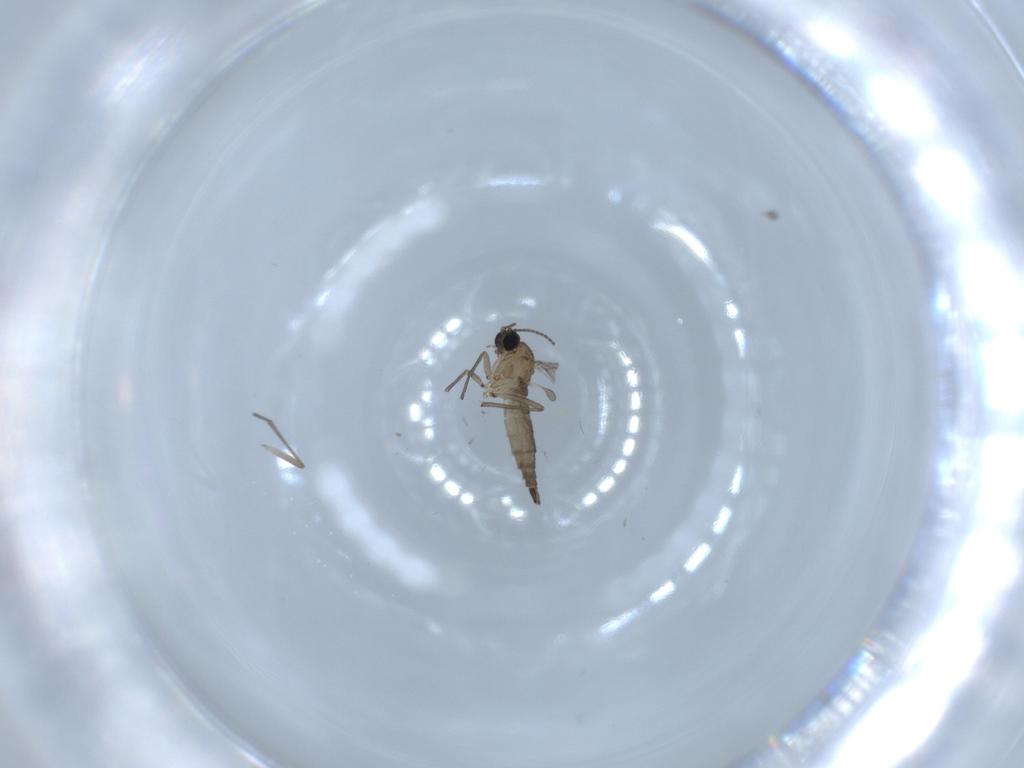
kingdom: Animalia
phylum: Arthropoda
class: Insecta
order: Diptera
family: Sciaridae
